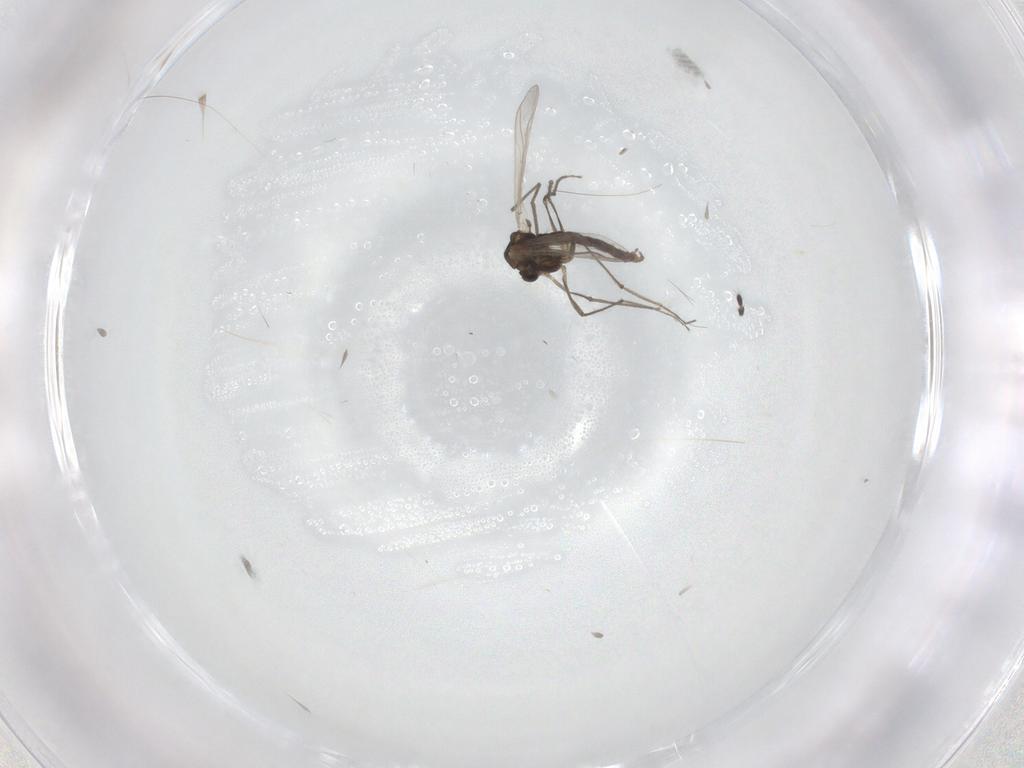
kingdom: Animalia
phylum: Arthropoda
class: Insecta
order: Diptera
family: Chironomidae
